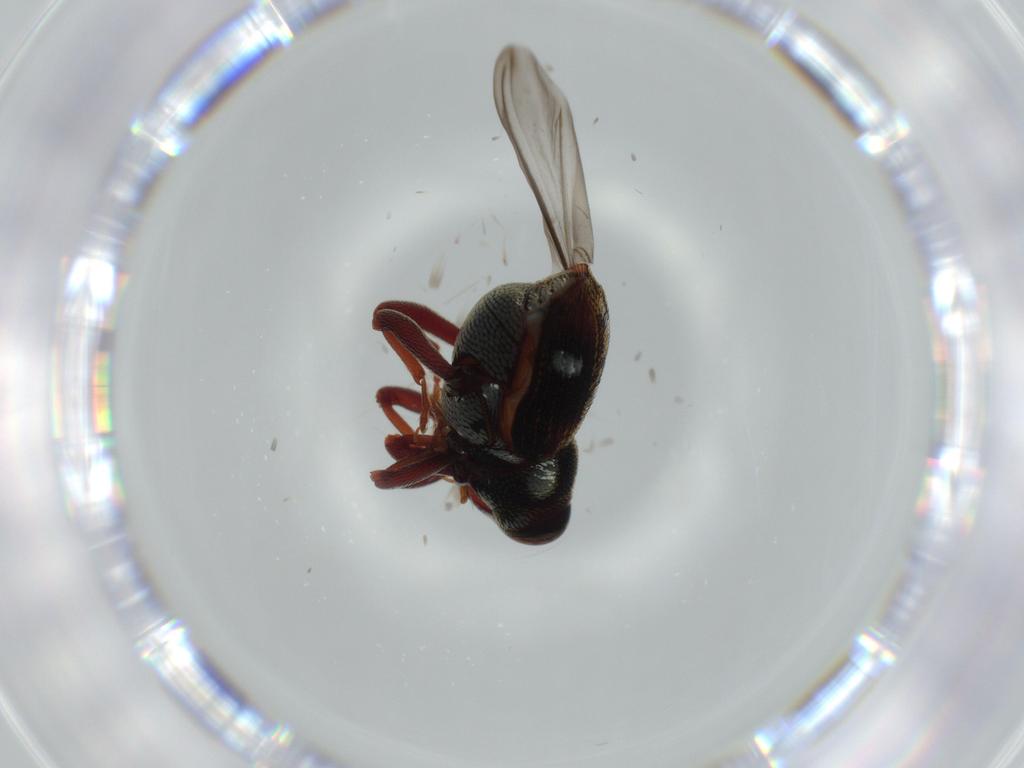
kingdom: Animalia
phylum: Arthropoda
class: Insecta
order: Coleoptera
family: Chrysomelidae
